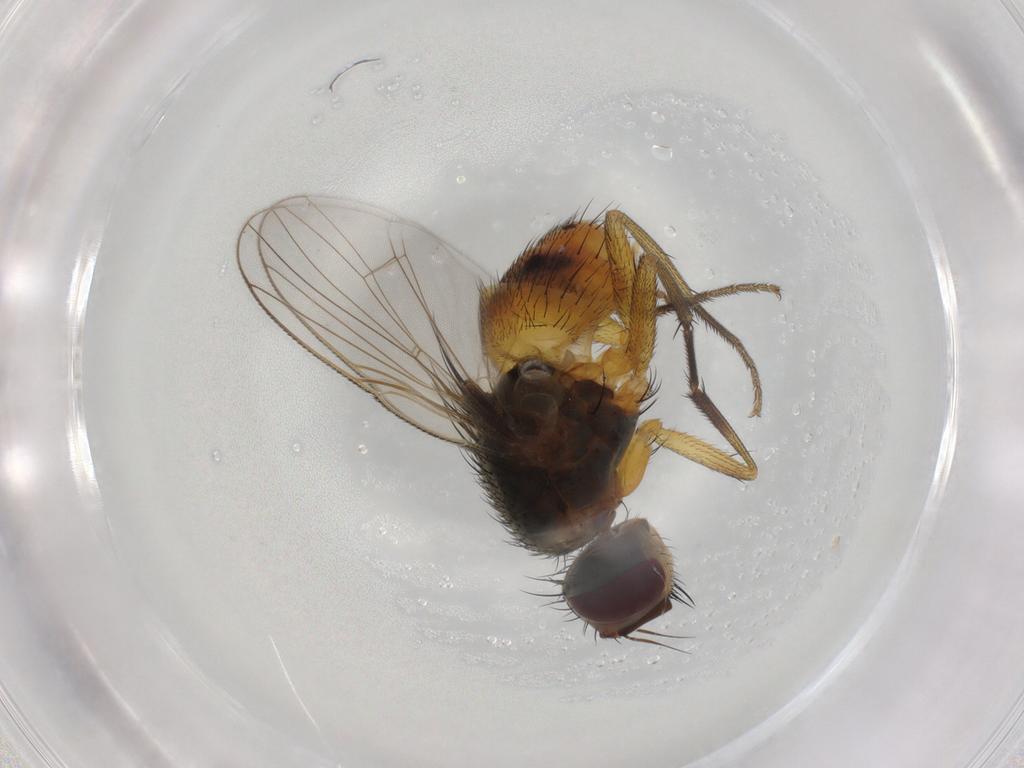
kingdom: Animalia
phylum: Arthropoda
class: Insecta
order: Diptera
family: Muscidae
